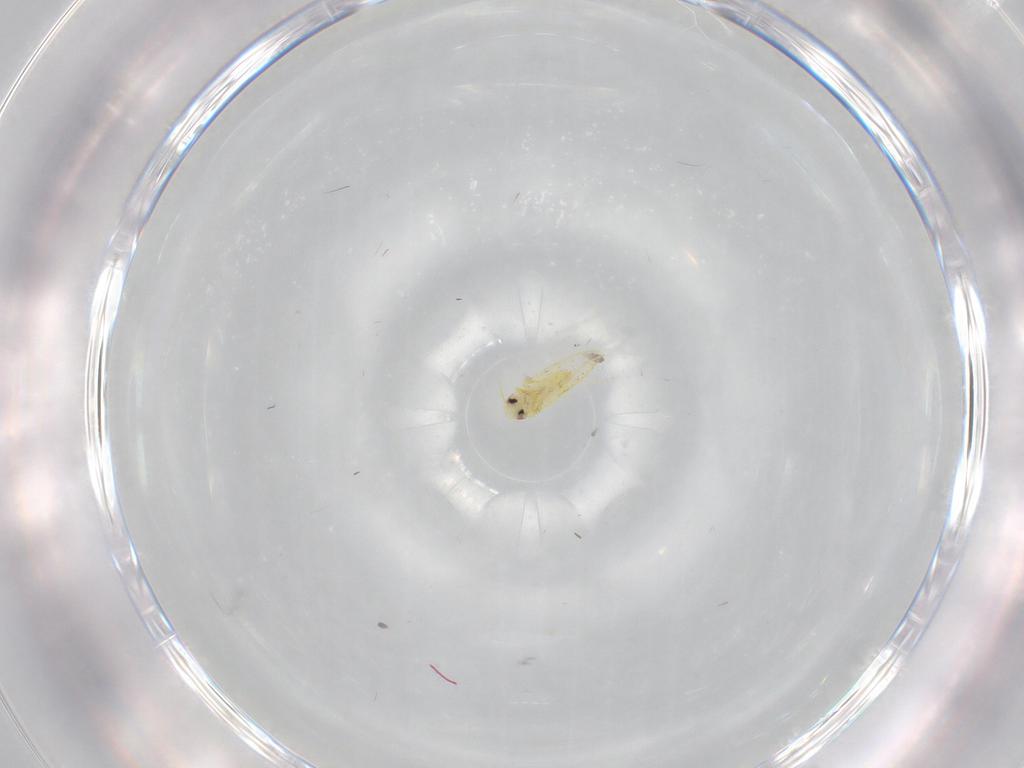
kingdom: Animalia
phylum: Arthropoda
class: Insecta
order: Hemiptera
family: Aleyrodidae
